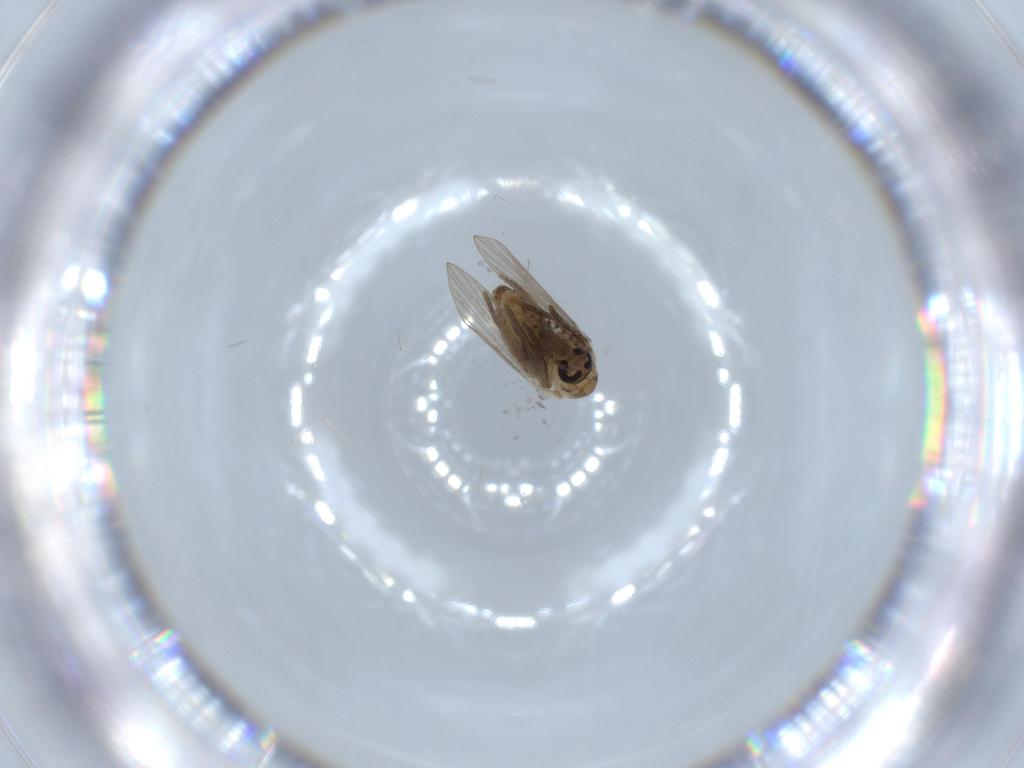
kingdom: Animalia
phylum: Arthropoda
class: Insecta
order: Diptera
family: Psychodidae
